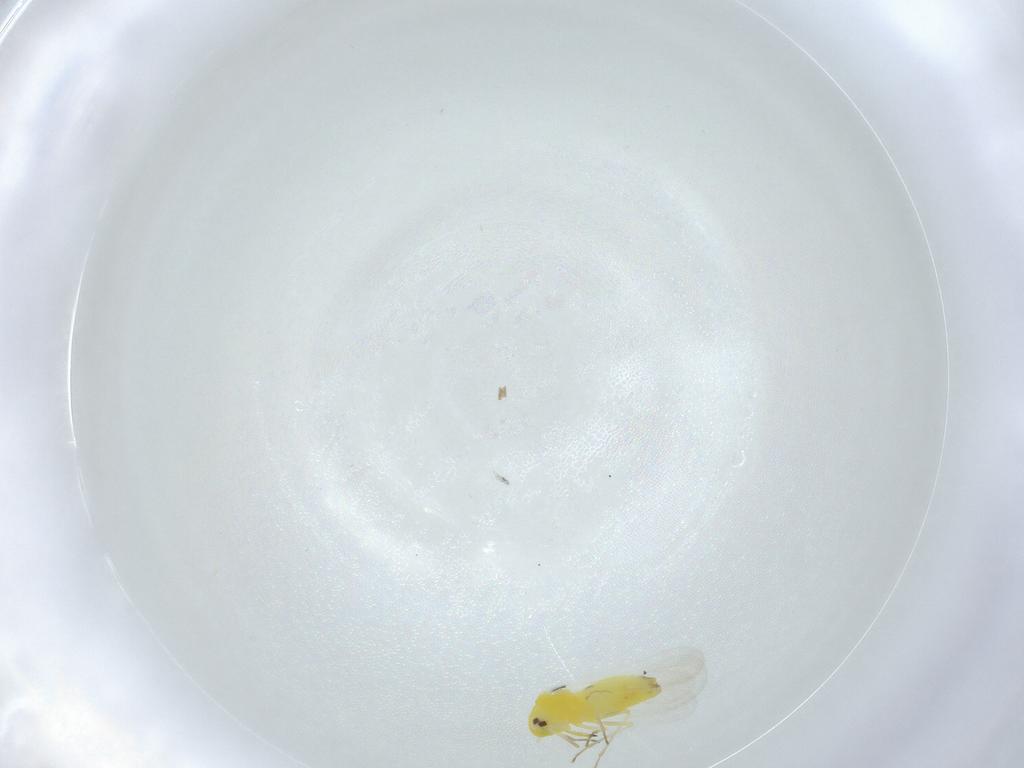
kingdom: Animalia
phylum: Arthropoda
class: Insecta
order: Hemiptera
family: Aleyrodidae
